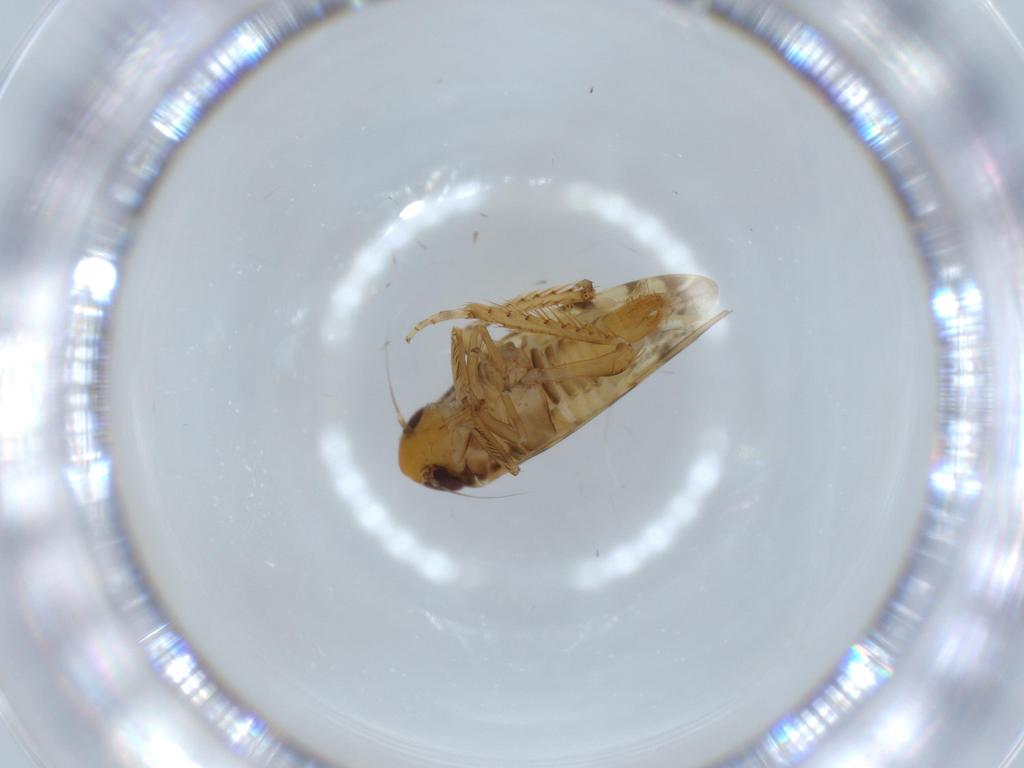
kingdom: Animalia
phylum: Arthropoda
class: Insecta
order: Hemiptera
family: Cicadellidae
